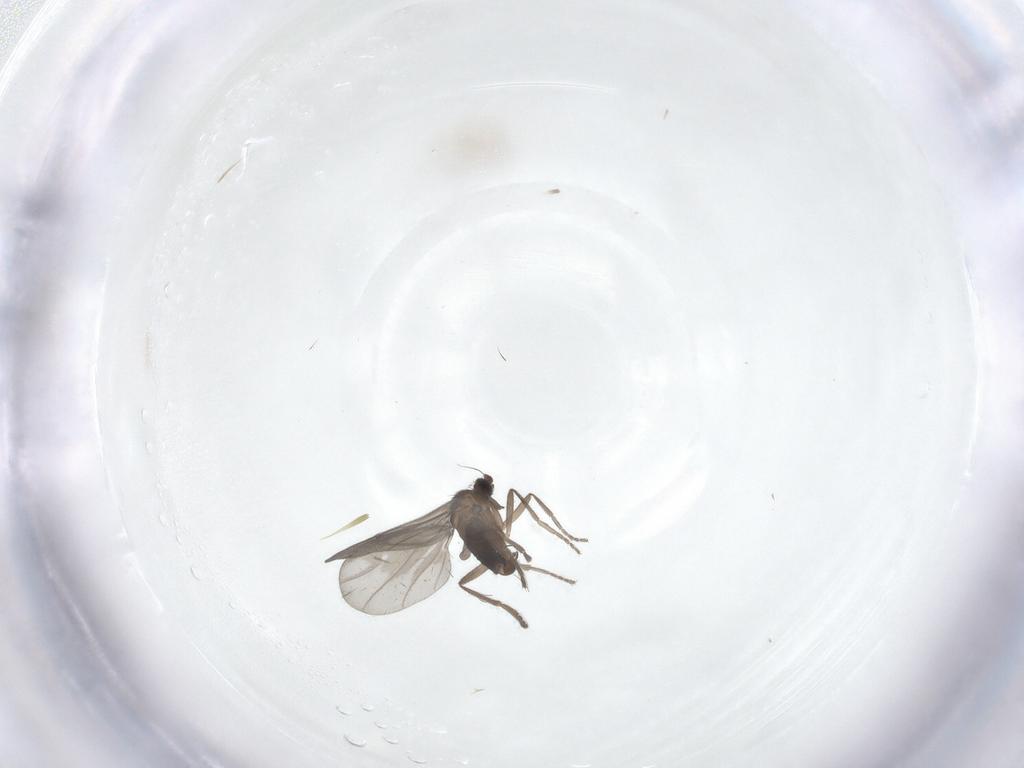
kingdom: Animalia
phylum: Arthropoda
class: Insecta
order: Diptera
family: Phoridae
